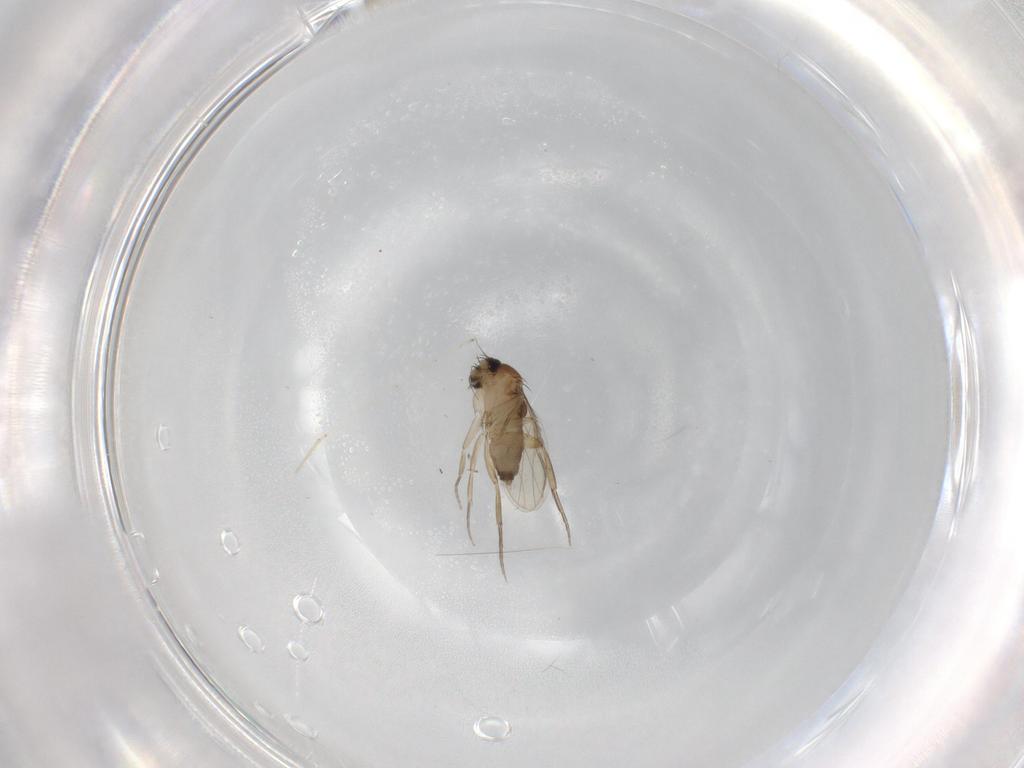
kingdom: Animalia
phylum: Arthropoda
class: Insecta
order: Diptera
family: Phoridae
